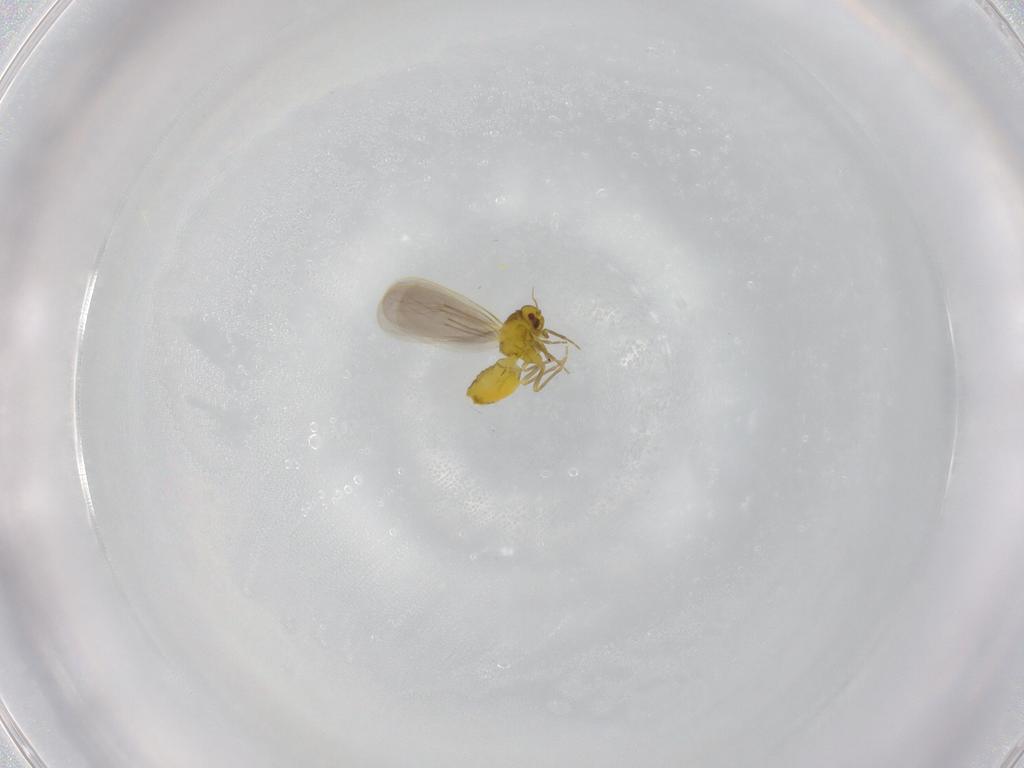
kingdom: Animalia
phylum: Arthropoda
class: Insecta
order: Hemiptera
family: Aleyrodidae
